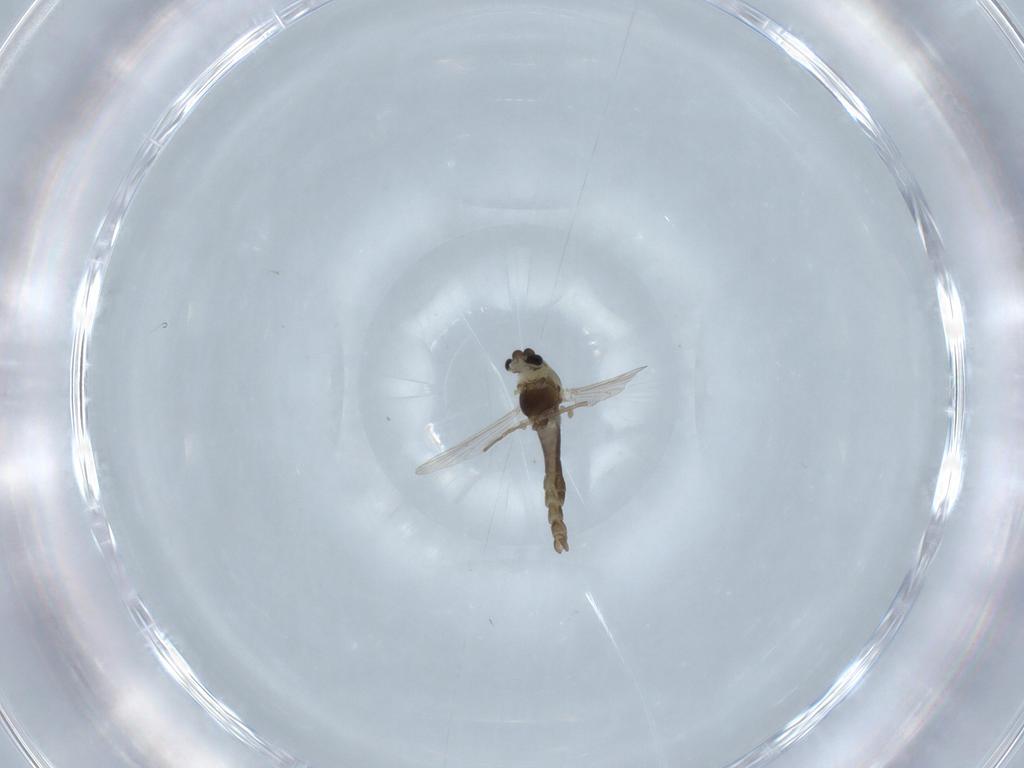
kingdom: Animalia
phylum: Arthropoda
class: Insecta
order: Diptera
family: Chironomidae
